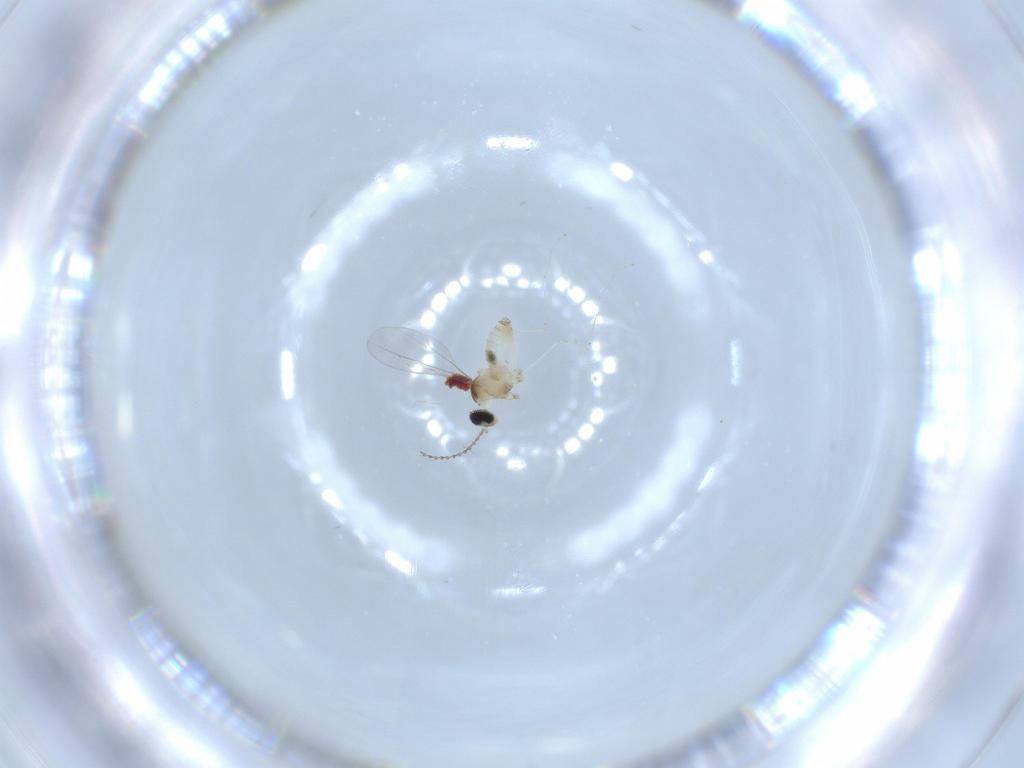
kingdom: Animalia
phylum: Arthropoda
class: Insecta
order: Diptera
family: Cecidomyiidae
